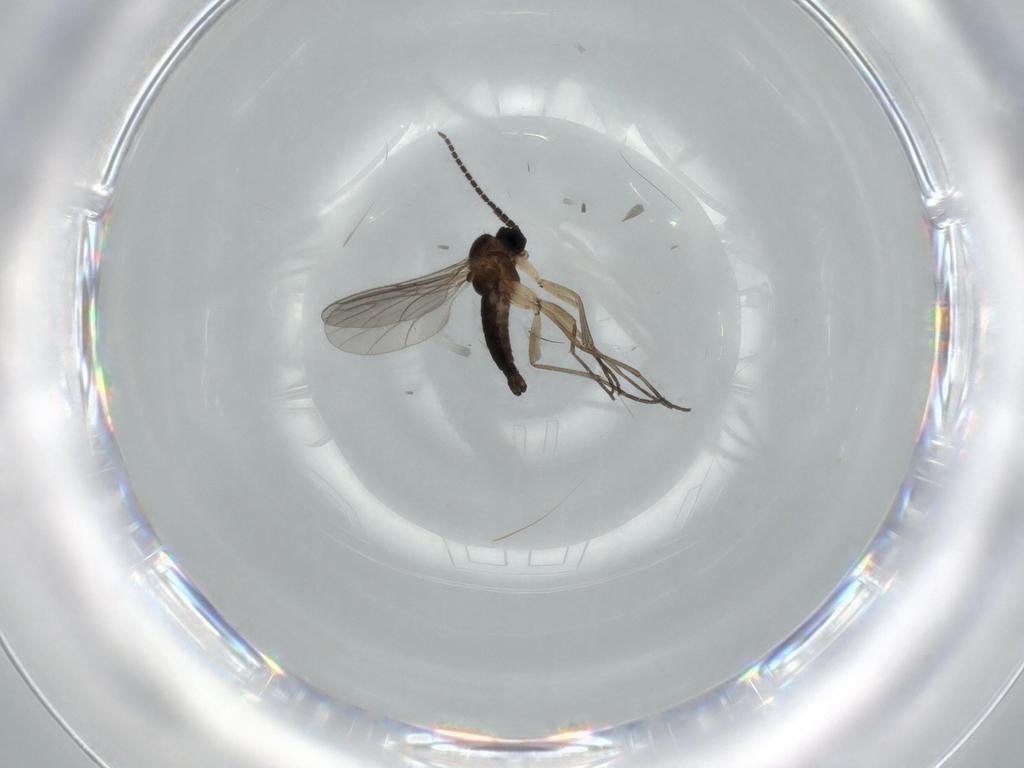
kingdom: Animalia
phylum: Arthropoda
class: Insecta
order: Diptera
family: Sciaridae
